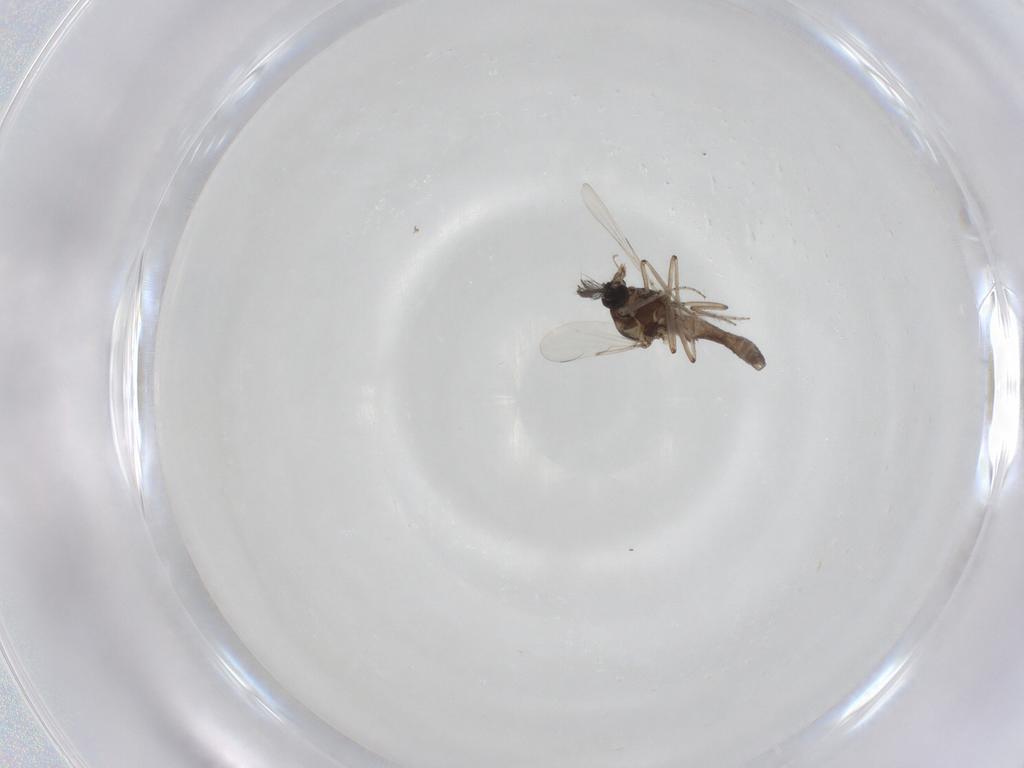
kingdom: Animalia
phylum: Arthropoda
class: Insecta
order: Diptera
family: Ceratopogonidae
